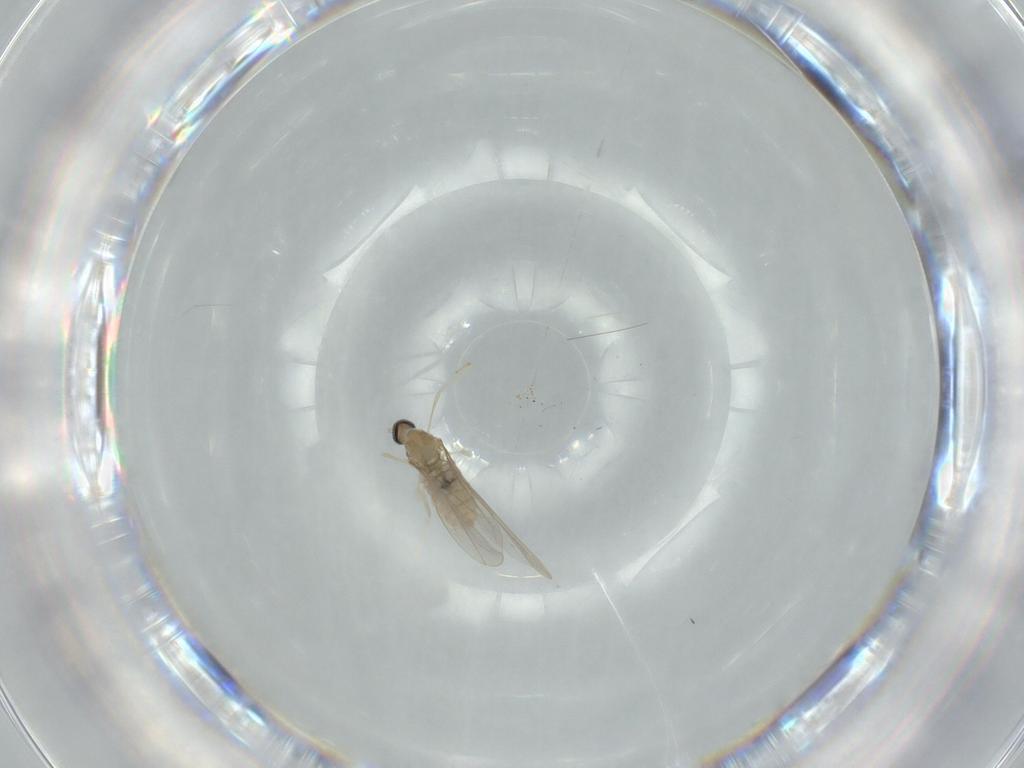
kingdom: Animalia
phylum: Arthropoda
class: Insecta
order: Diptera
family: Cecidomyiidae
